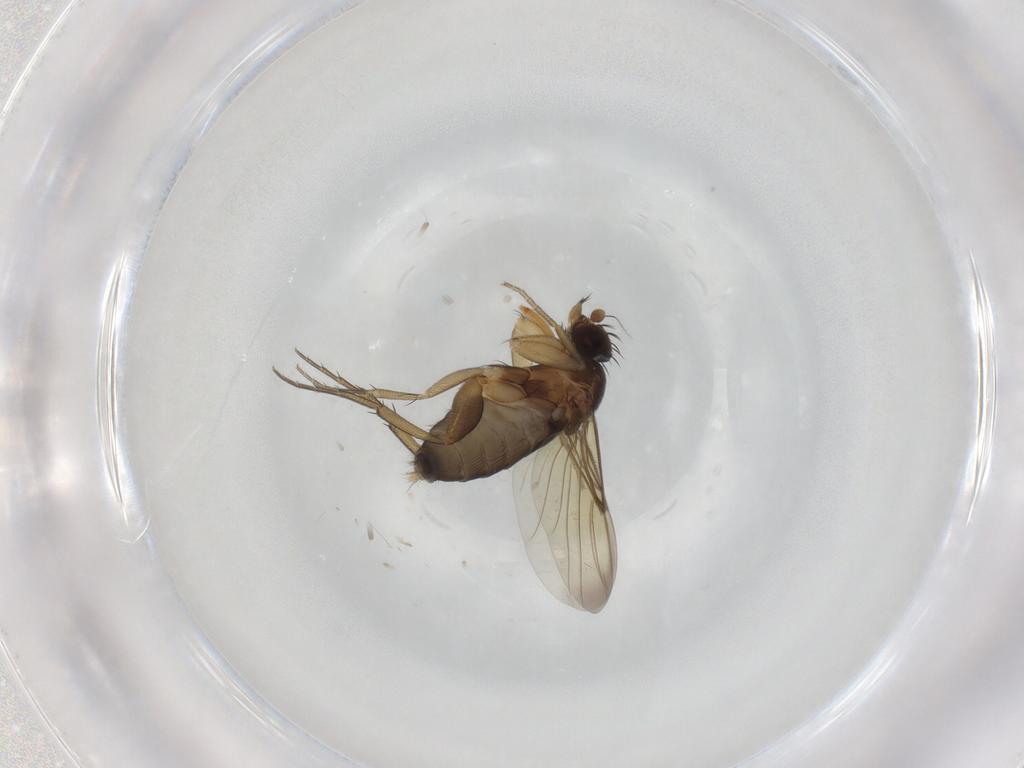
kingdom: Animalia
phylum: Arthropoda
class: Insecta
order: Diptera
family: Phoridae
